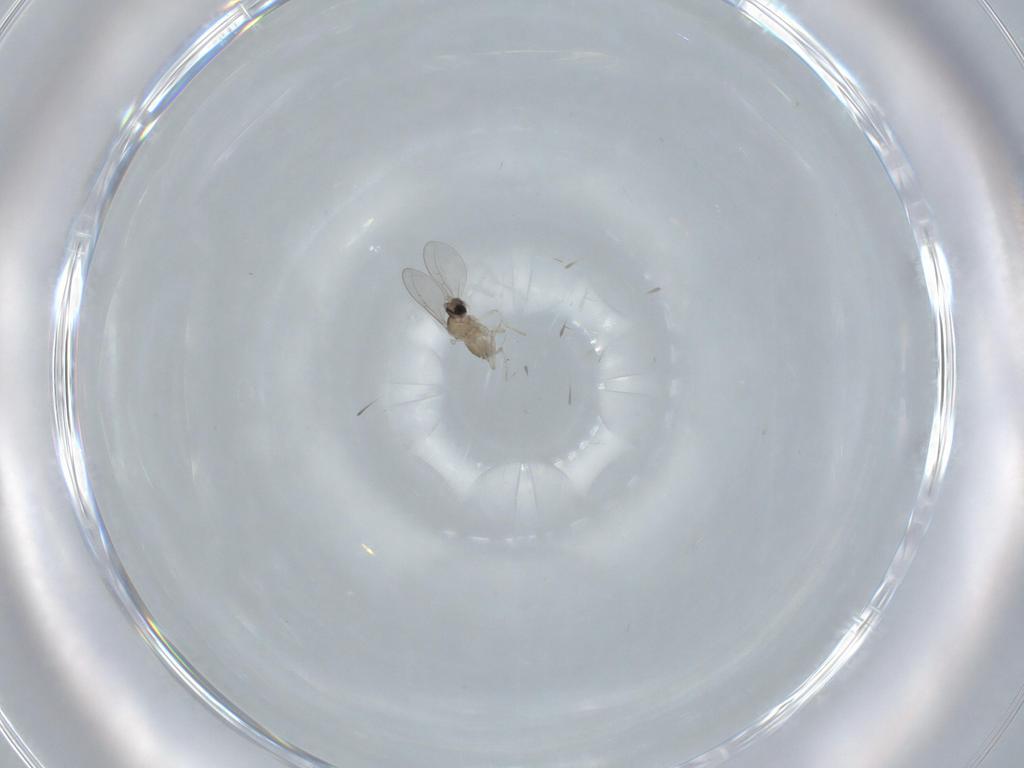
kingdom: Animalia
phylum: Arthropoda
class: Insecta
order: Diptera
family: Cecidomyiidae
